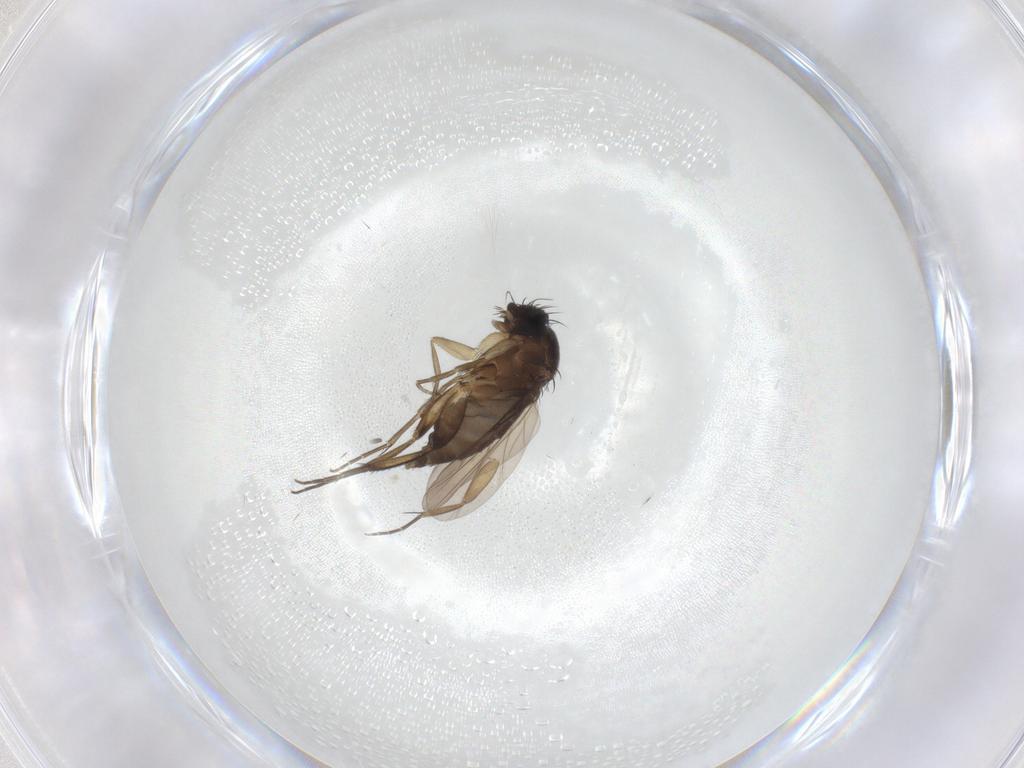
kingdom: Animalia
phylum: Arthropoda
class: Insecta
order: Diptera
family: Phoridae
